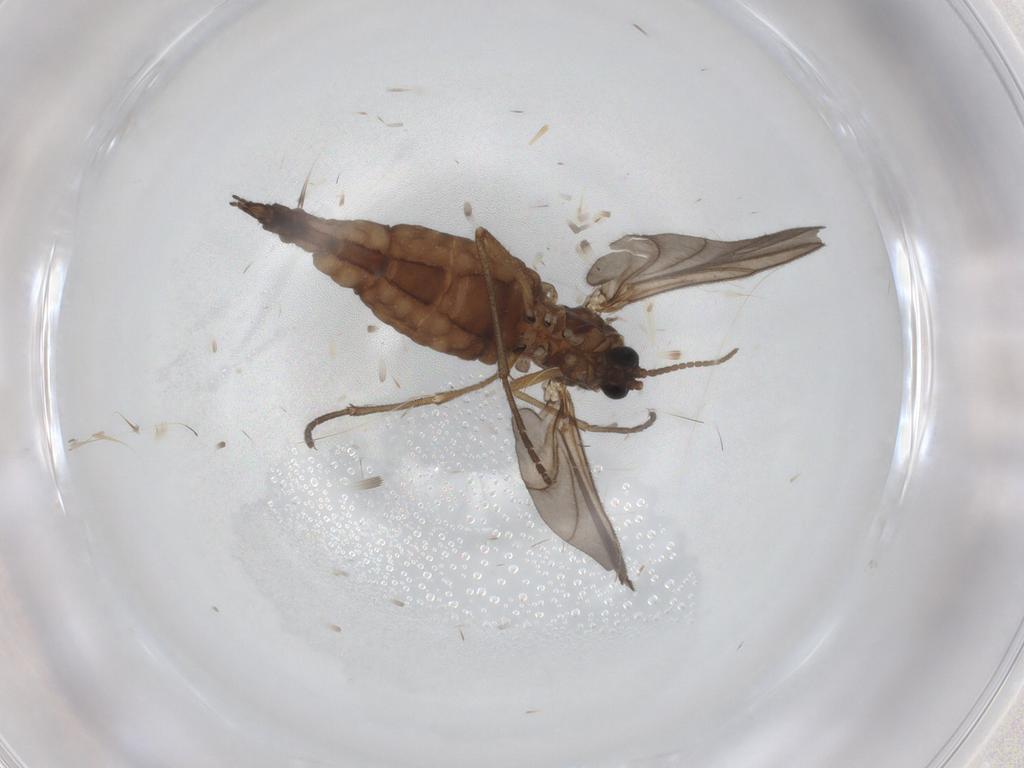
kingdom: Animalia
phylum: Arthropoda
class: Insecta
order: Diptera
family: Sciaridae
